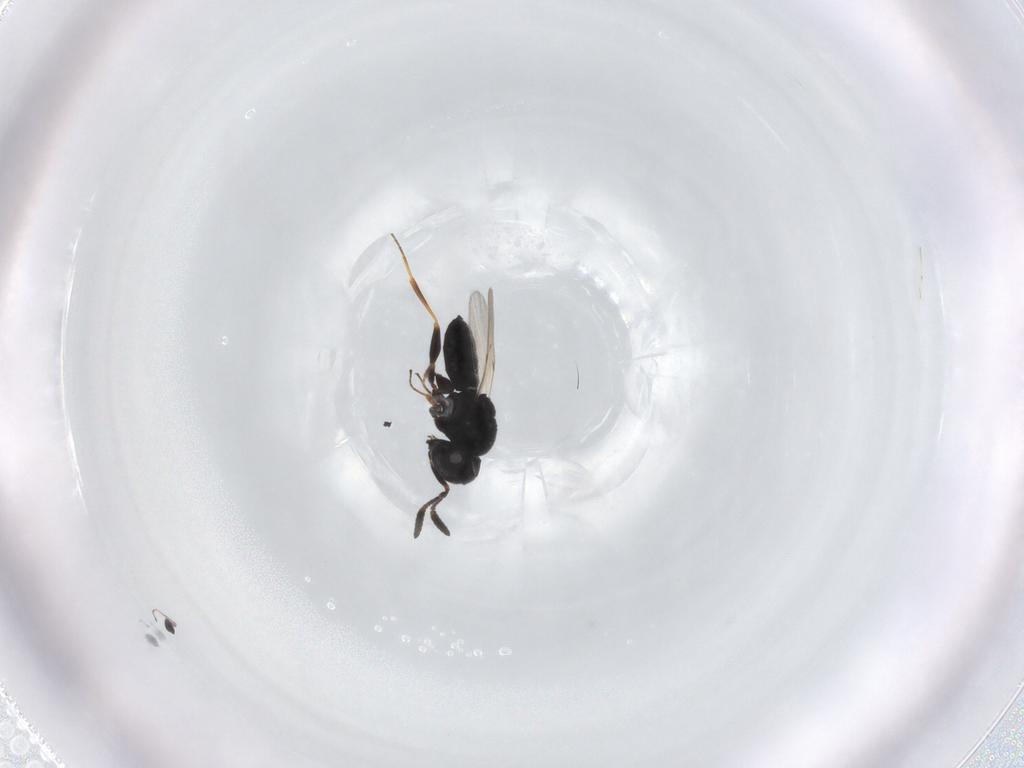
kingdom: Animalia
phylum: Arthropoda
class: Insecta
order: Hymenoptera
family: Scelionidae
